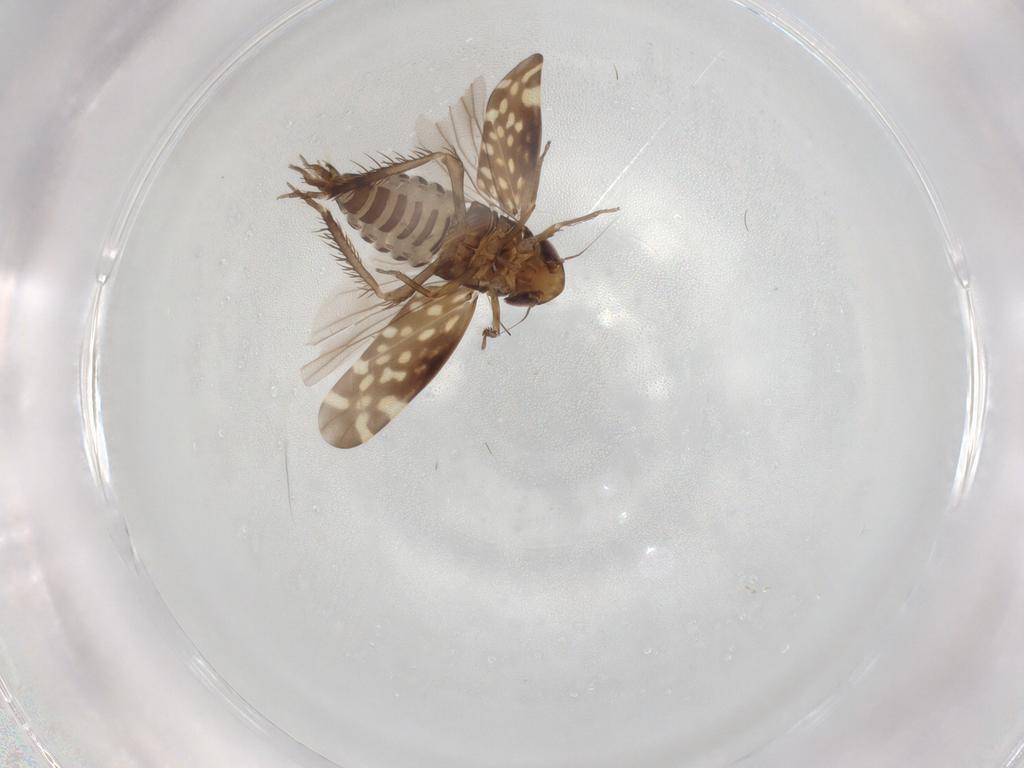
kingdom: Animalia
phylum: Arthropoda
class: Insecta
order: Hemiptera
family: Cicadellidae
